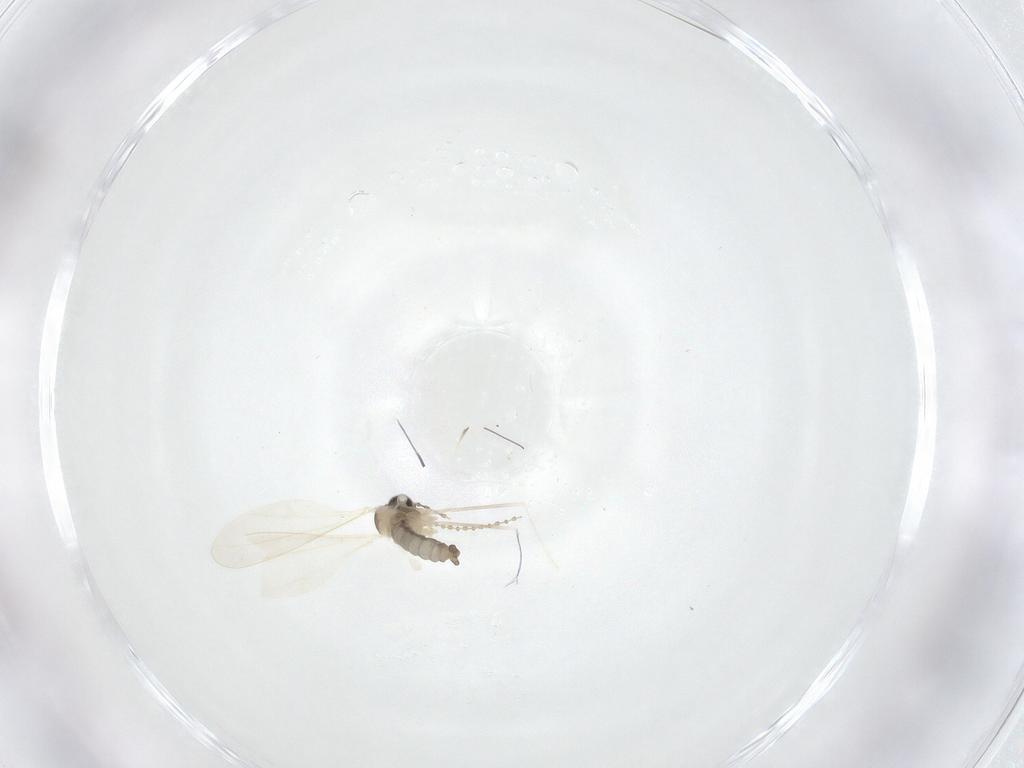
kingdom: Animalia
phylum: Arthropoda
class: Insecta
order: Diptera
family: Cecidomyiidae
